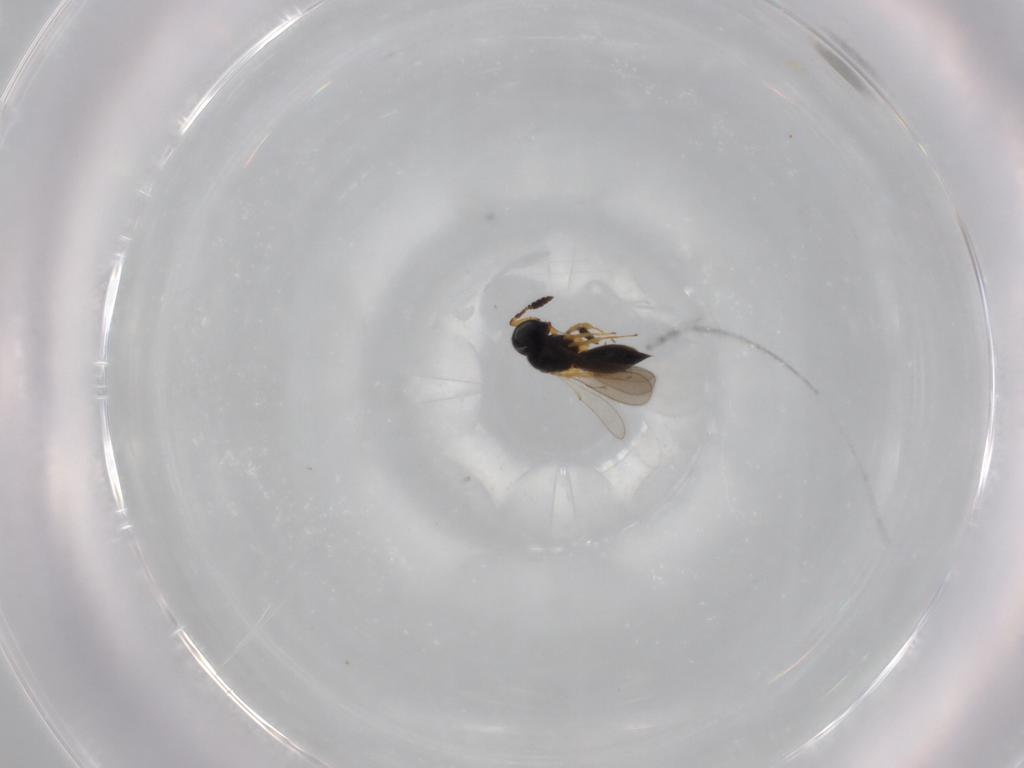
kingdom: Animalia
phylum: Arthropoda
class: Insecta
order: Hymenoptera
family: Scelionidae
